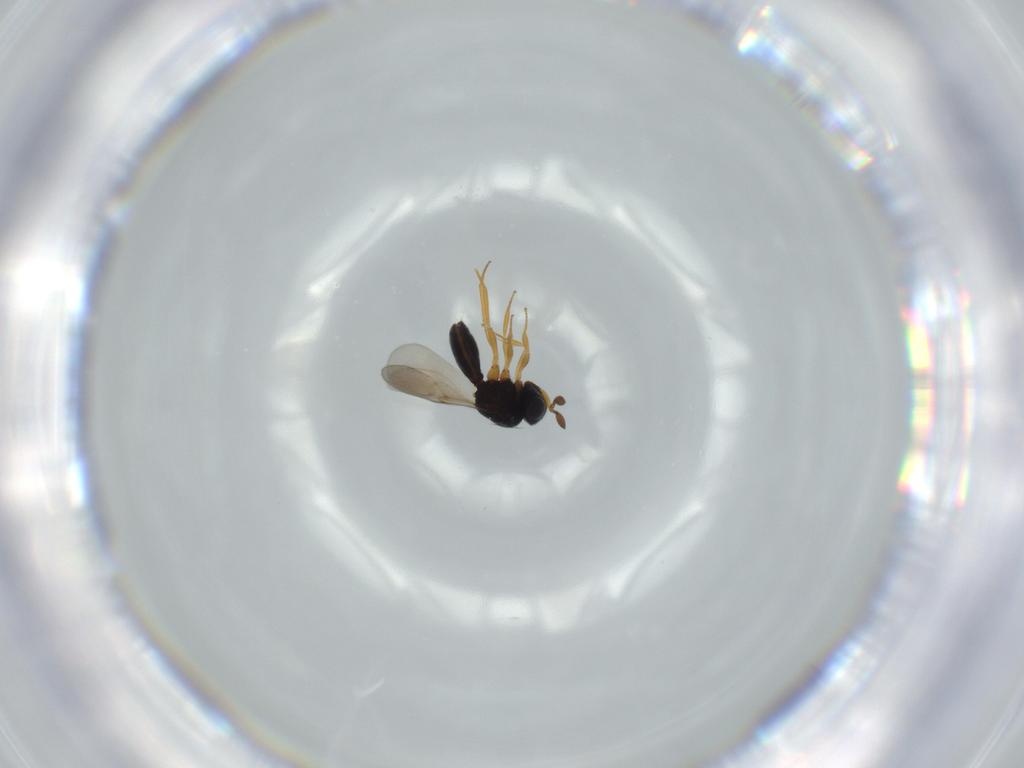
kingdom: Animalia
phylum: Arthropoda
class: Insecta
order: Hymenoptera
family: Scelionidae
